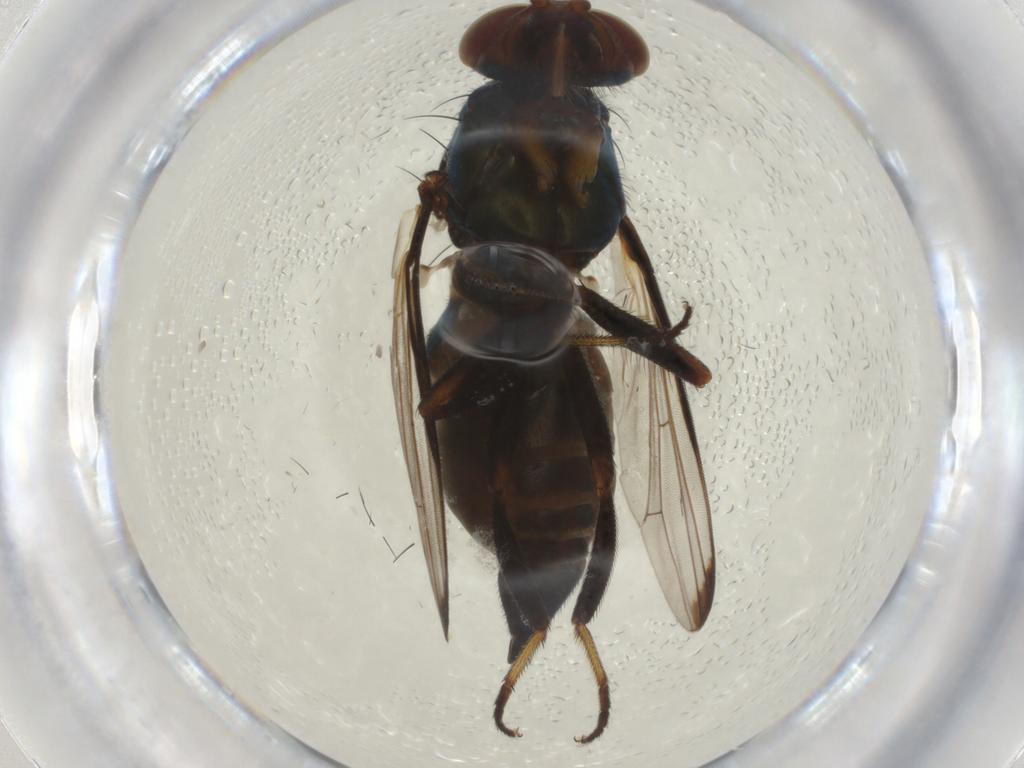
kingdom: Animalia
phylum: Arthropoda
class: Insecta
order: Diptera
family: Ulidiidae
